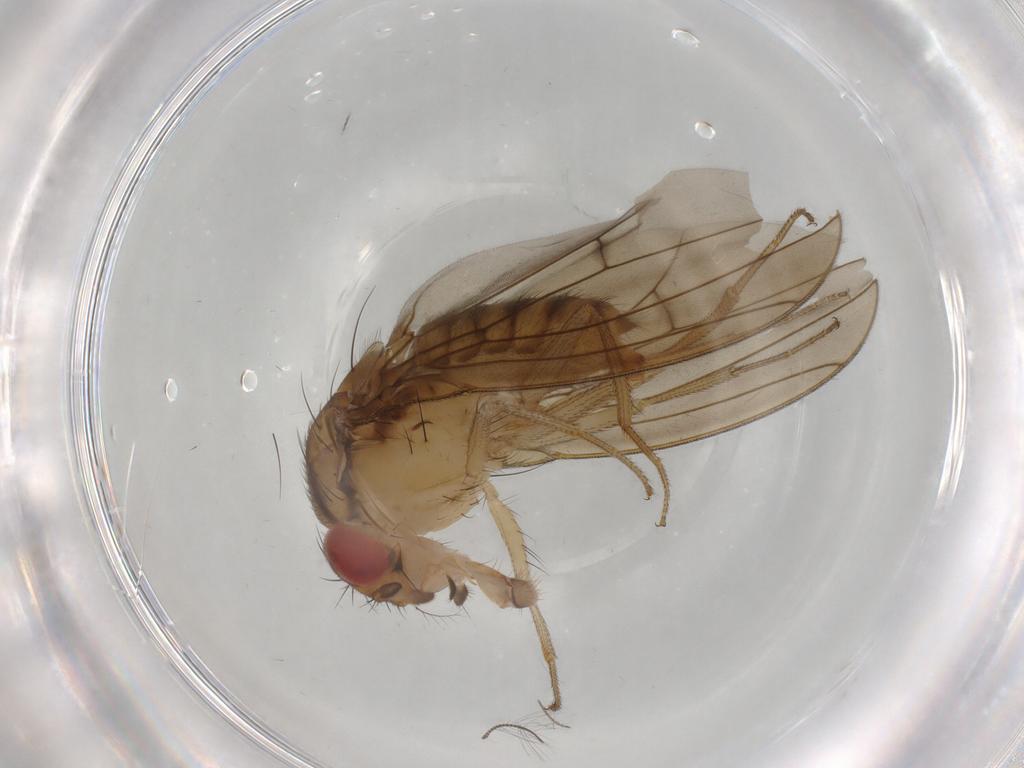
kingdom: Animalia
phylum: Arthropoda
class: Insecta
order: Diptera
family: Drosophilidae
